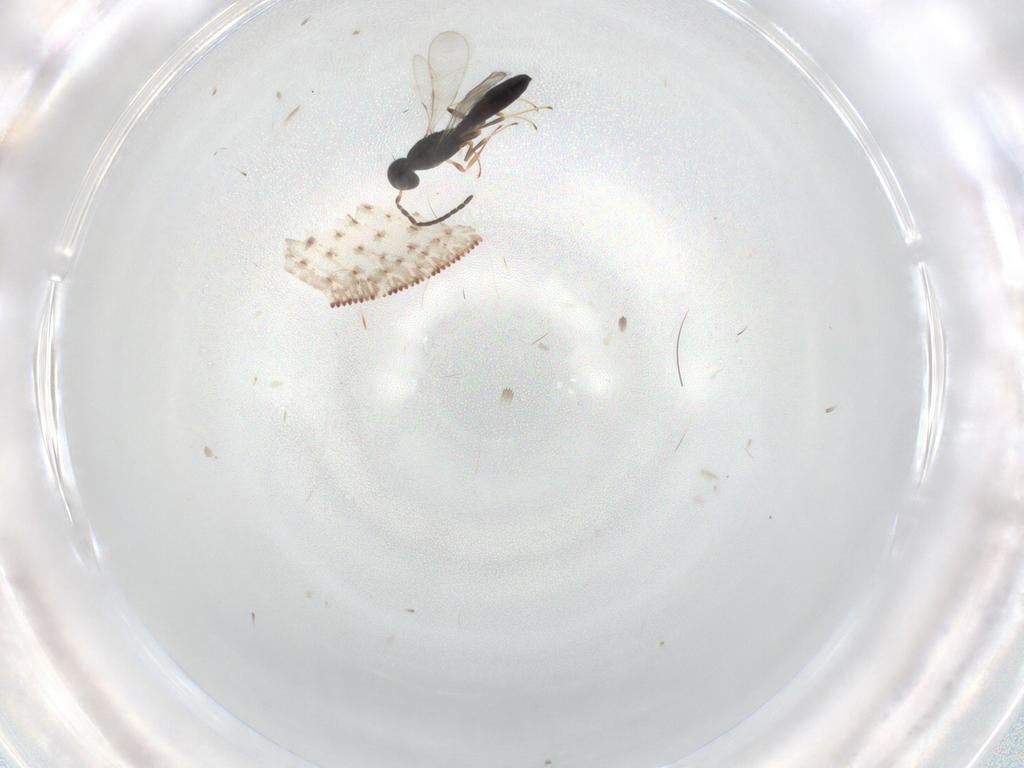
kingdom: Animalia
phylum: Arthropoda
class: Insecta
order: Hymenoptera
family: Scelionidae
